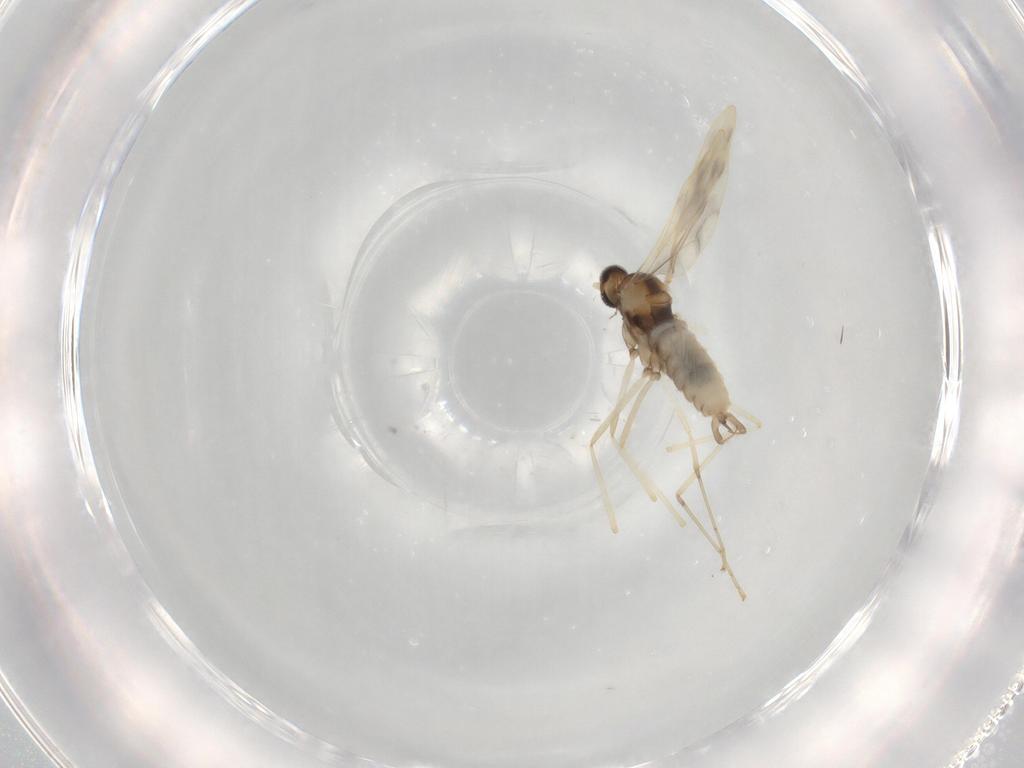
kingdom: Animalia
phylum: Arthropoda
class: Insecta
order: Diptera
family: Cecidomyiidae
